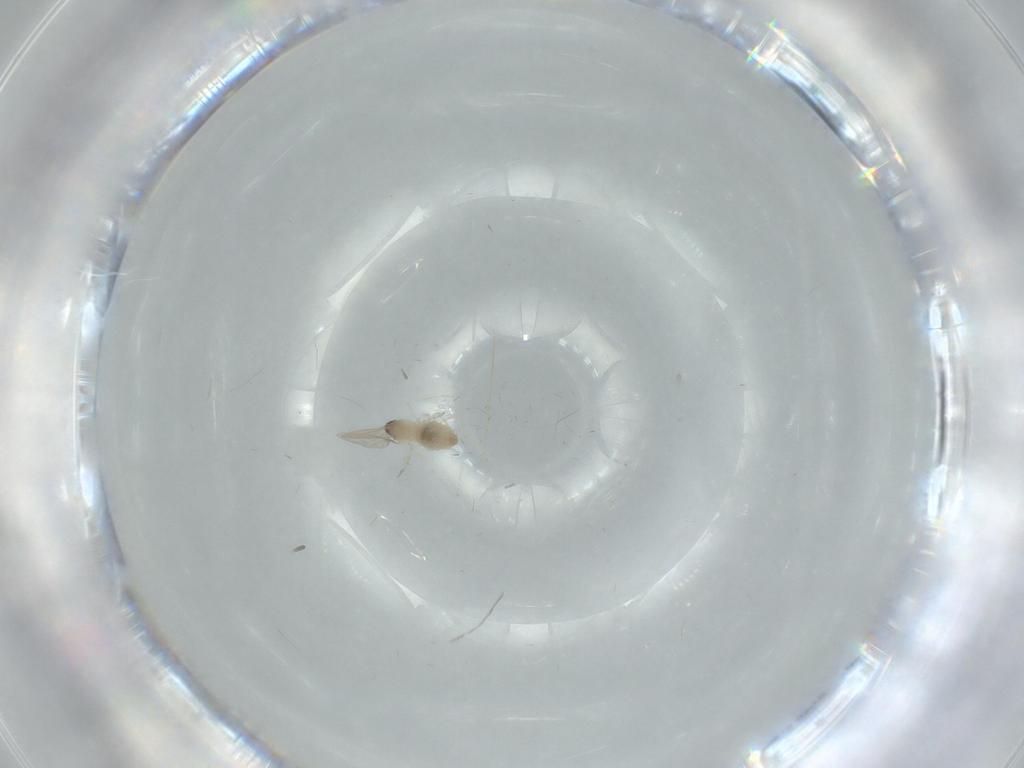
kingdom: Animalia
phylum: Arthropoda
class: Insecta
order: Diptera
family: Cecidomyiidae
